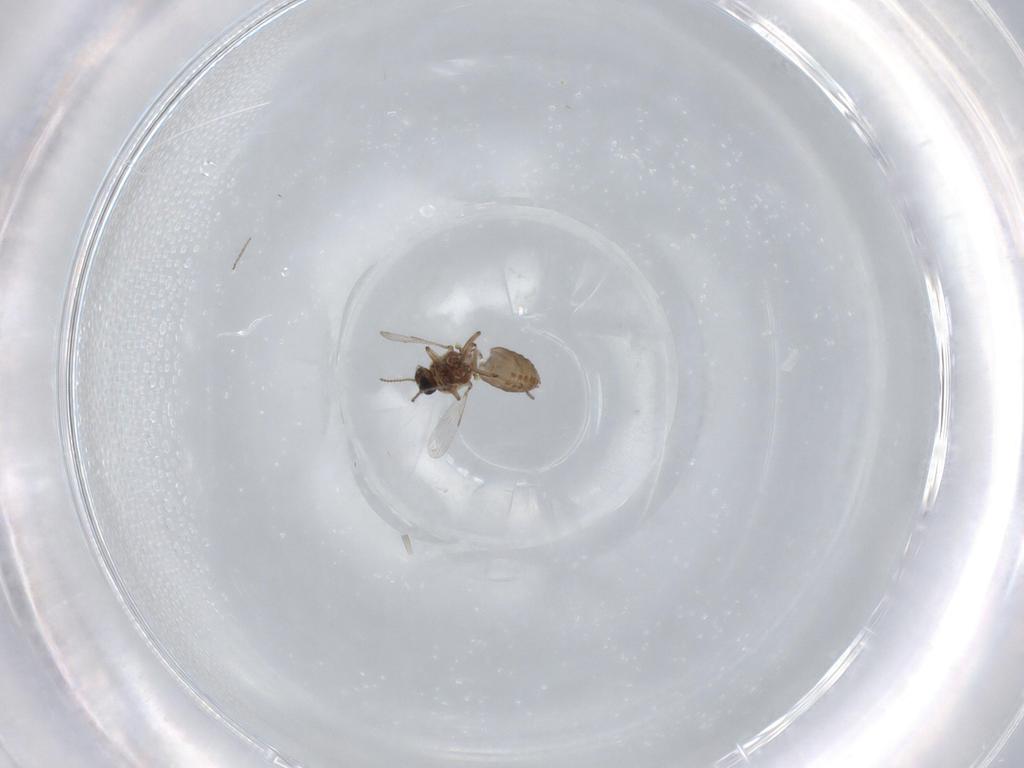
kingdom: Animalia
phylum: Arthropoda
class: Insecta
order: Diptera
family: Ceratopogonidae
